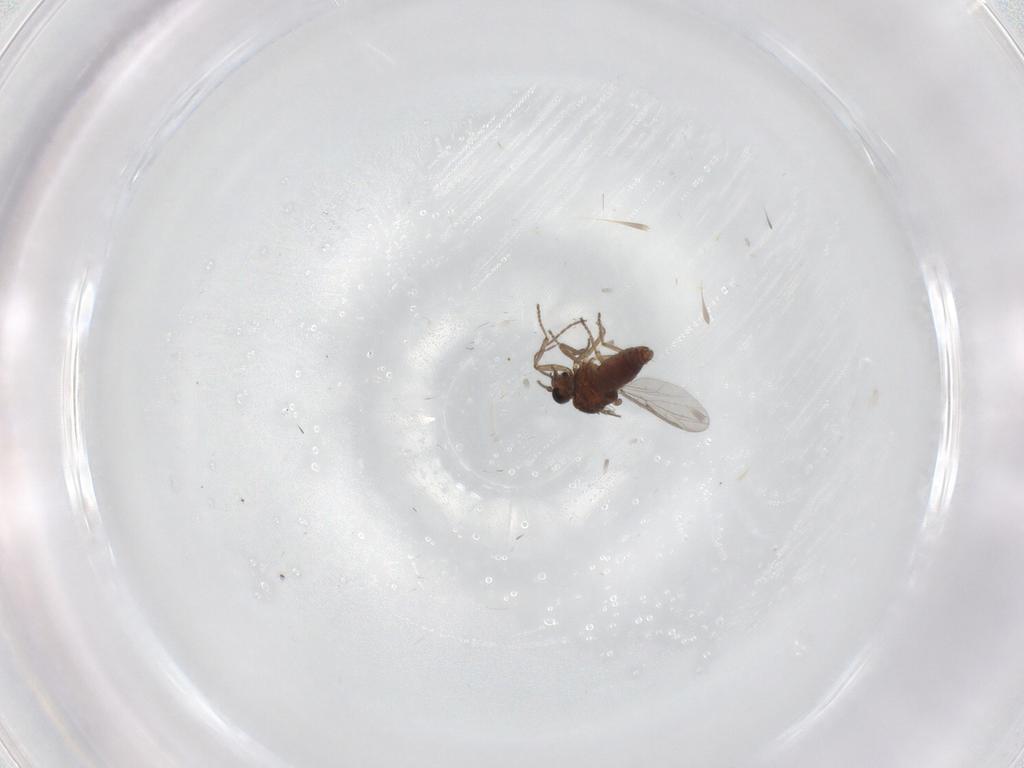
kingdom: Animalia
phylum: Arthropoda
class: Insecta
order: Diptera
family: Ceratopogonidae
